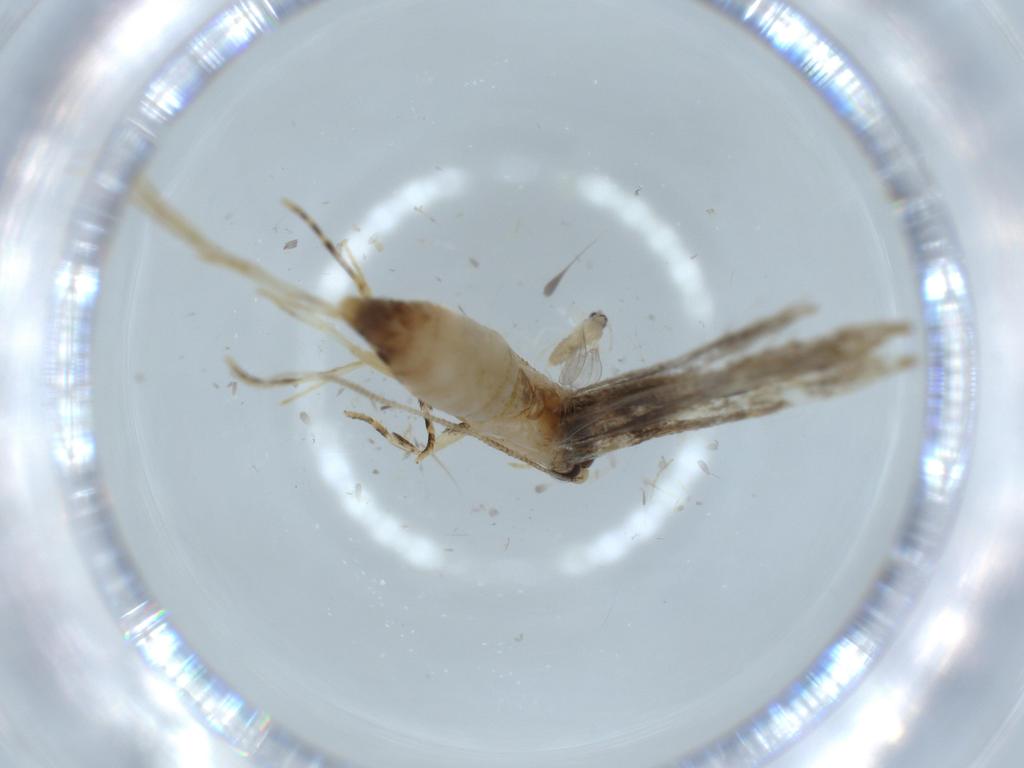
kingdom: Animalia
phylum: Arthropoda
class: Insecta
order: Lepidoptera
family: Tineidae
